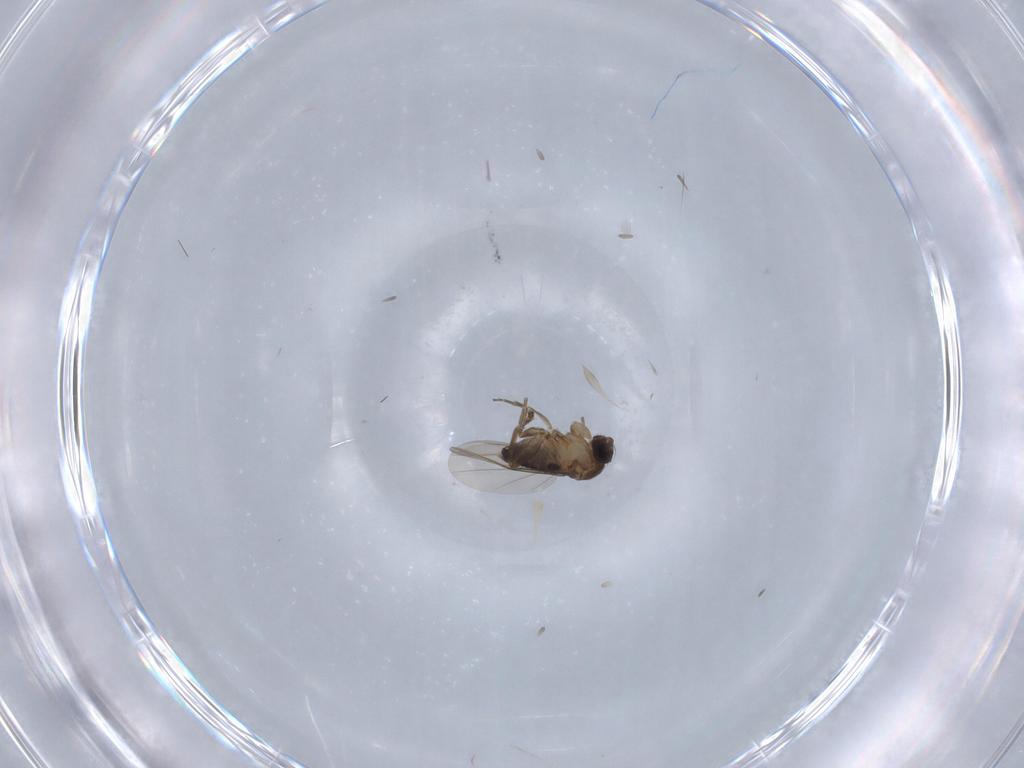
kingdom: Animalia
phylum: Arthropoda
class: Insecta
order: Diptera
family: Dolichopodidae
